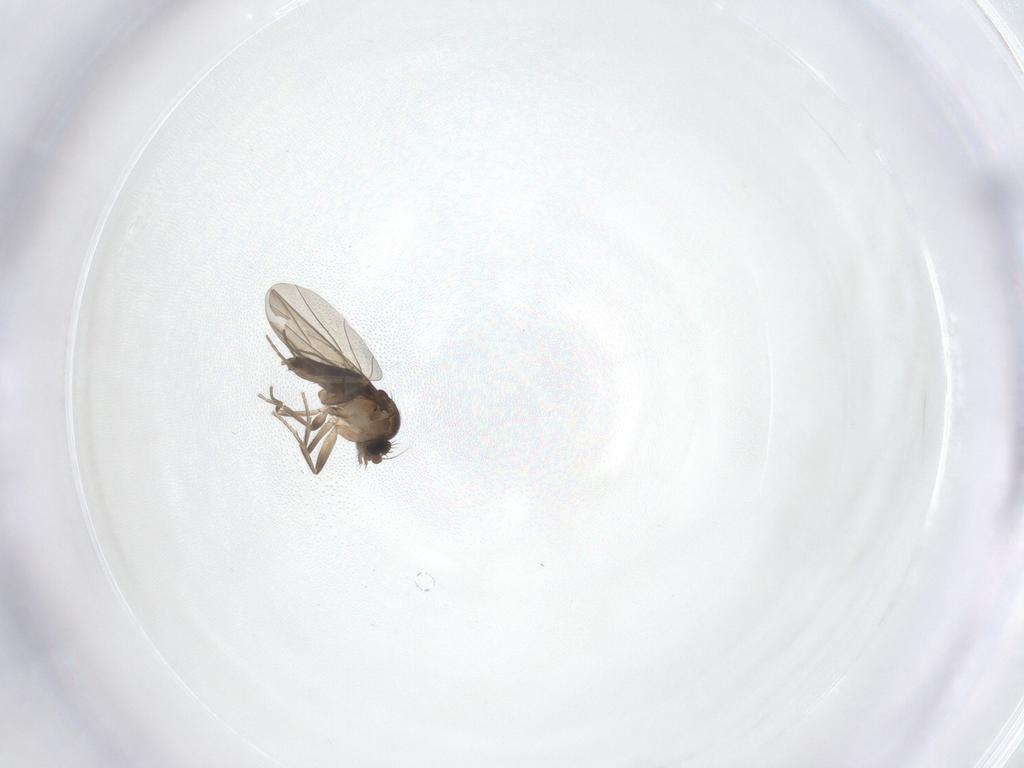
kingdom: Animalia
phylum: Arthropoda
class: Insecta
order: Diptera
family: Phoridae
